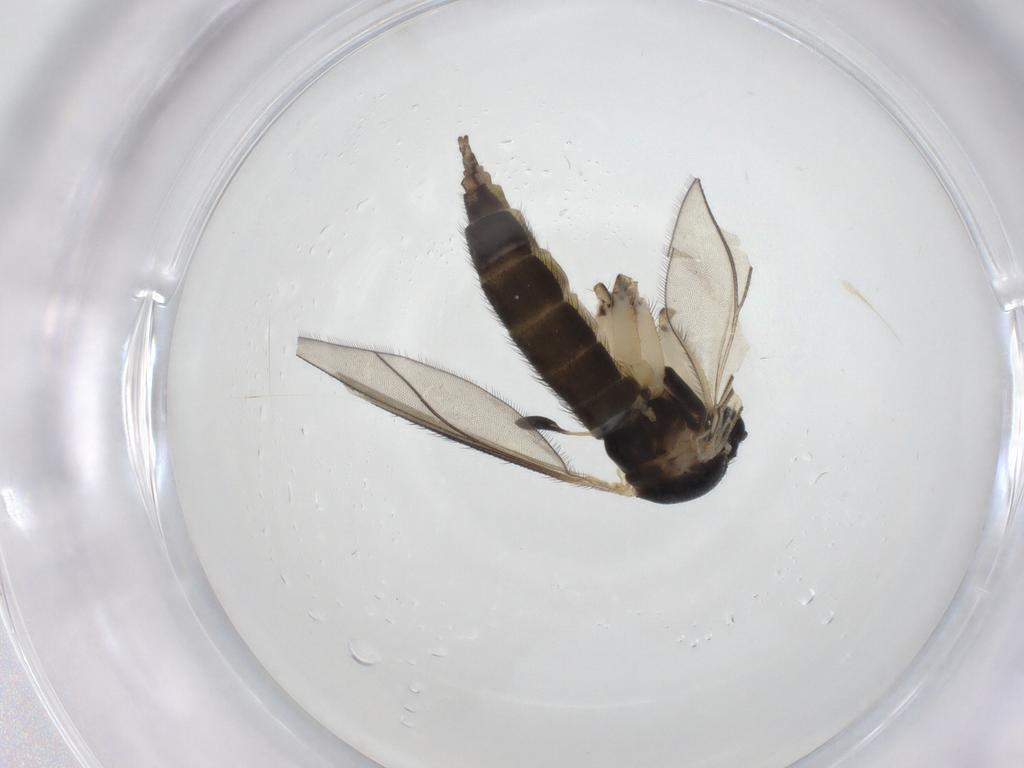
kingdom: Animalia
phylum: Arthropoda
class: Insecta
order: Diptera
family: Sciaridae
